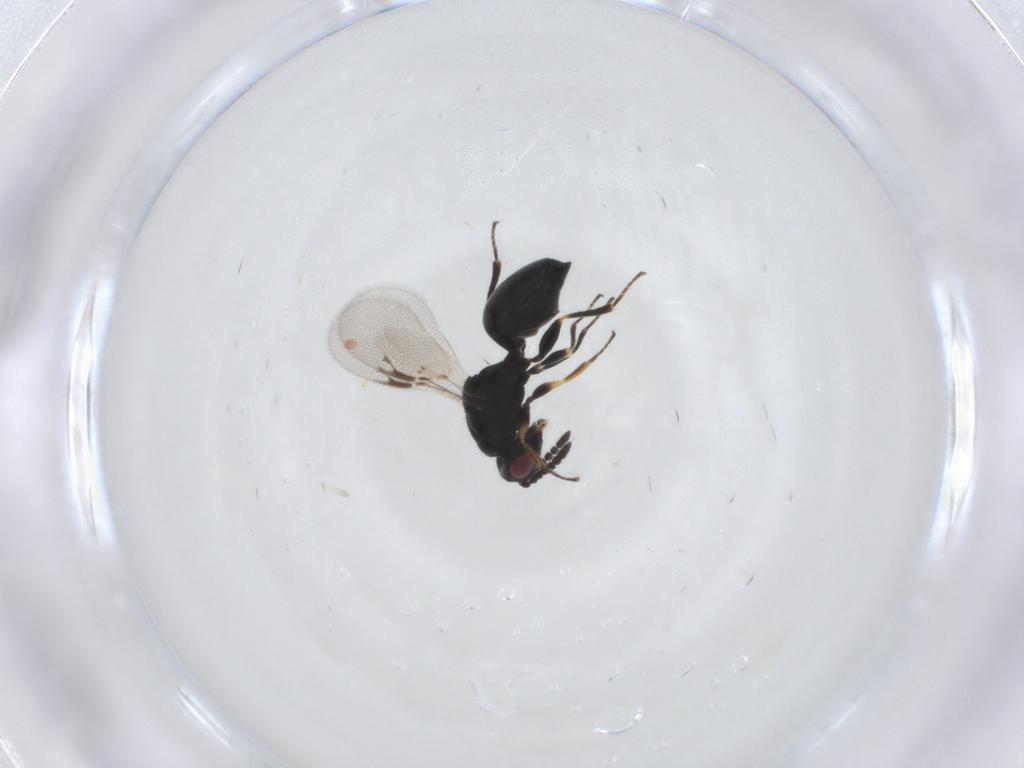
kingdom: Animalia
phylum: Arthropoda
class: Insecta
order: Hymenoptera
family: Eurytomidae
